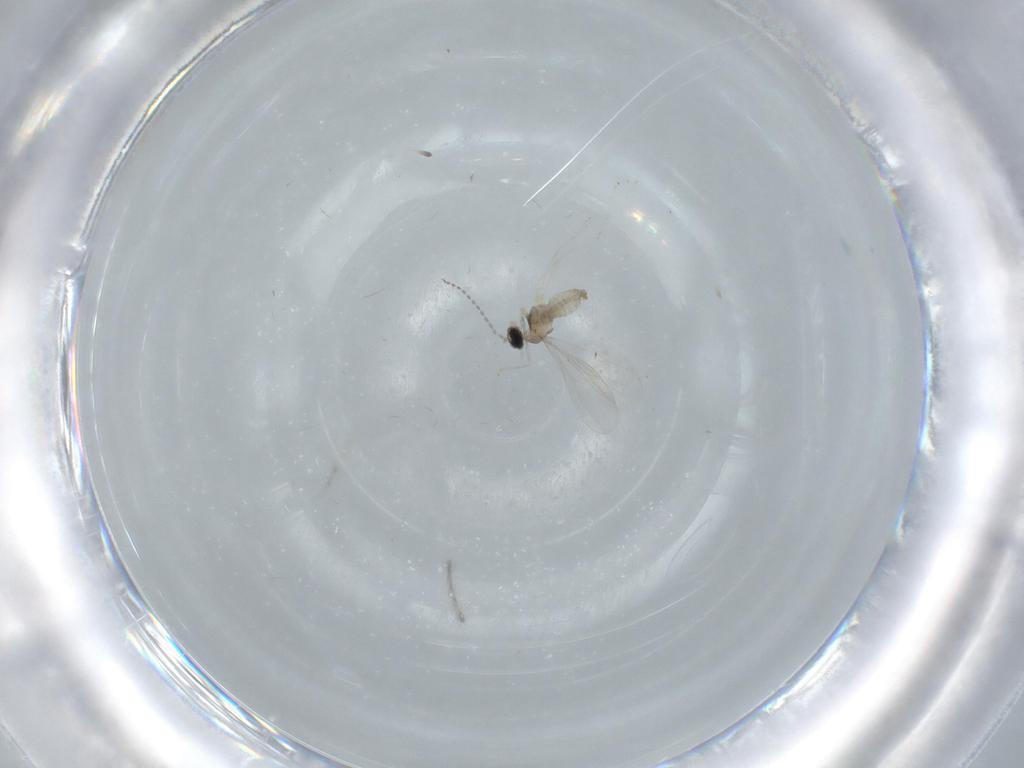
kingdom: Animalia
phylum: Arthropoda
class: Insecta
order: Diptera
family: Cecidomyiidae
